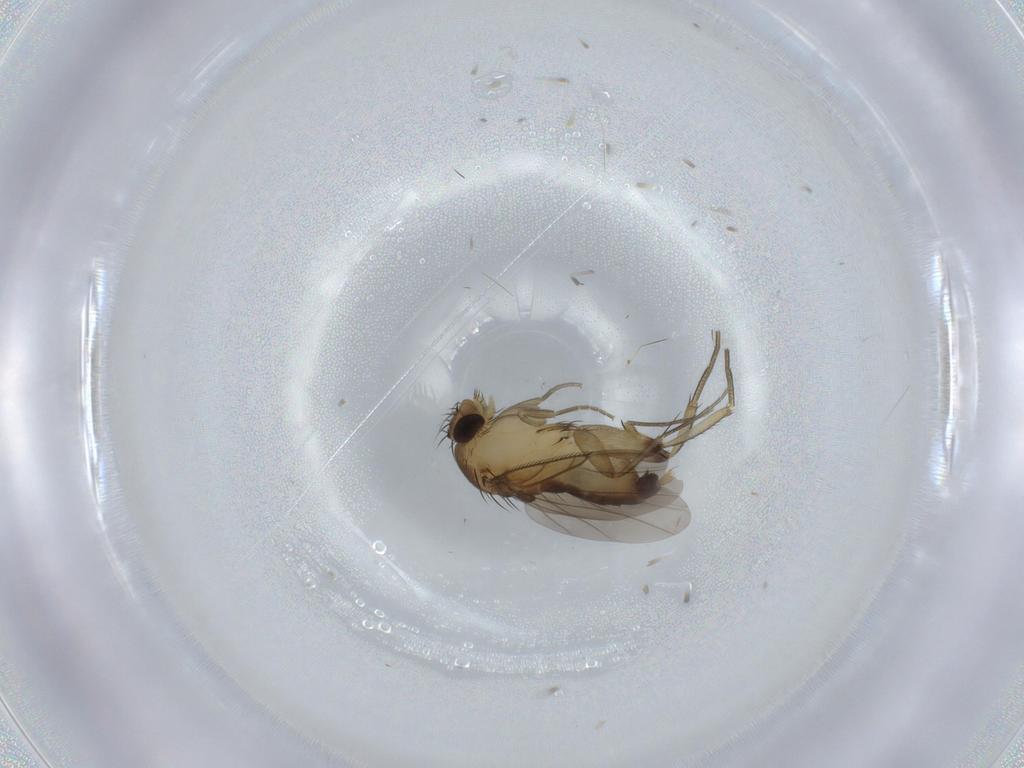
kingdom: Animalia
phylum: Arthropoda
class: Insecta
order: Diptera
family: Phoridae
